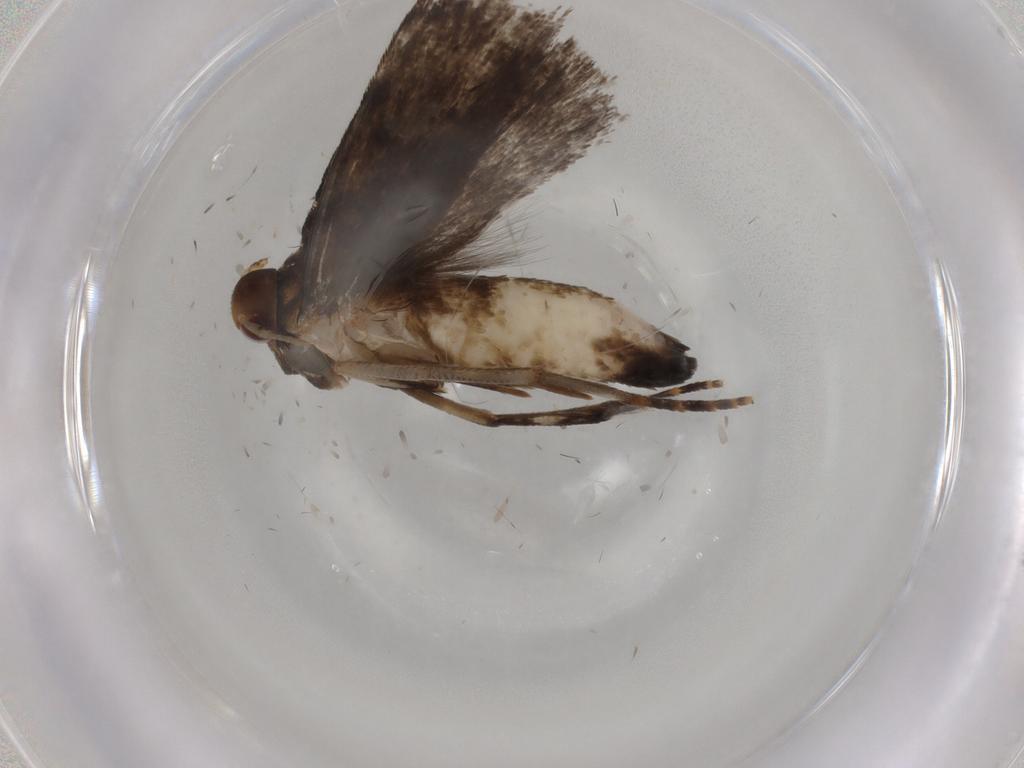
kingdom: Animalia
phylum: Arthropoda
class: Insecta
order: Lepidoptera
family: Gelechiidae
